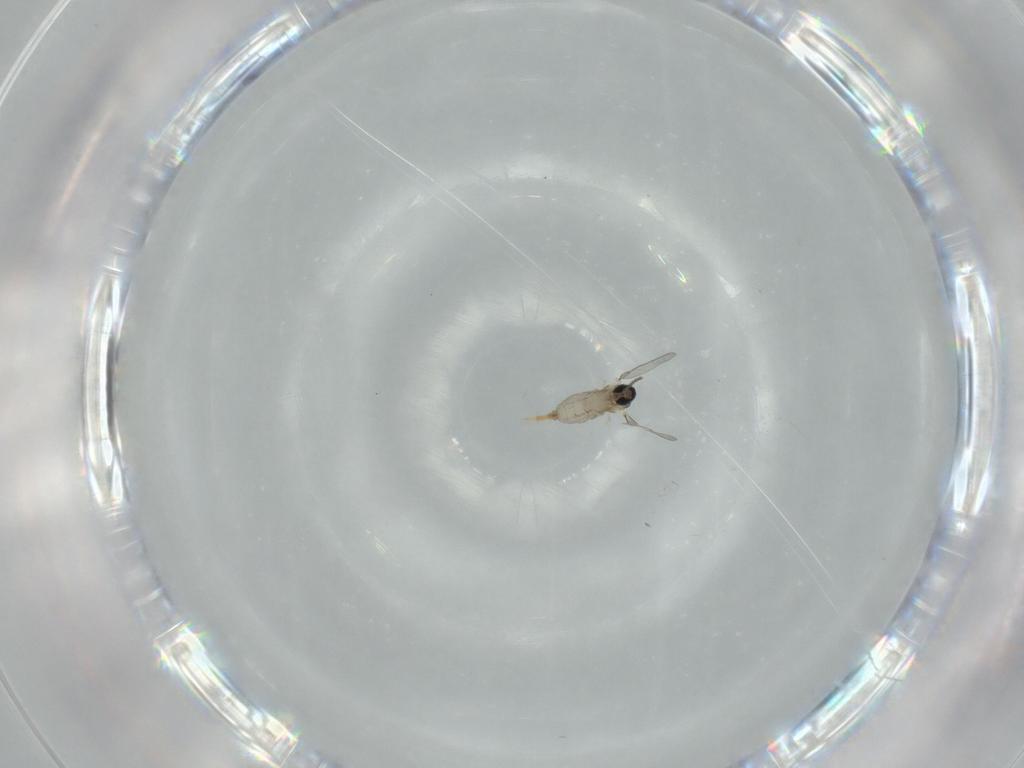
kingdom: Animalia
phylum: Arthropoda
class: Insecta
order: Diptera
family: Cecidomyiidae
